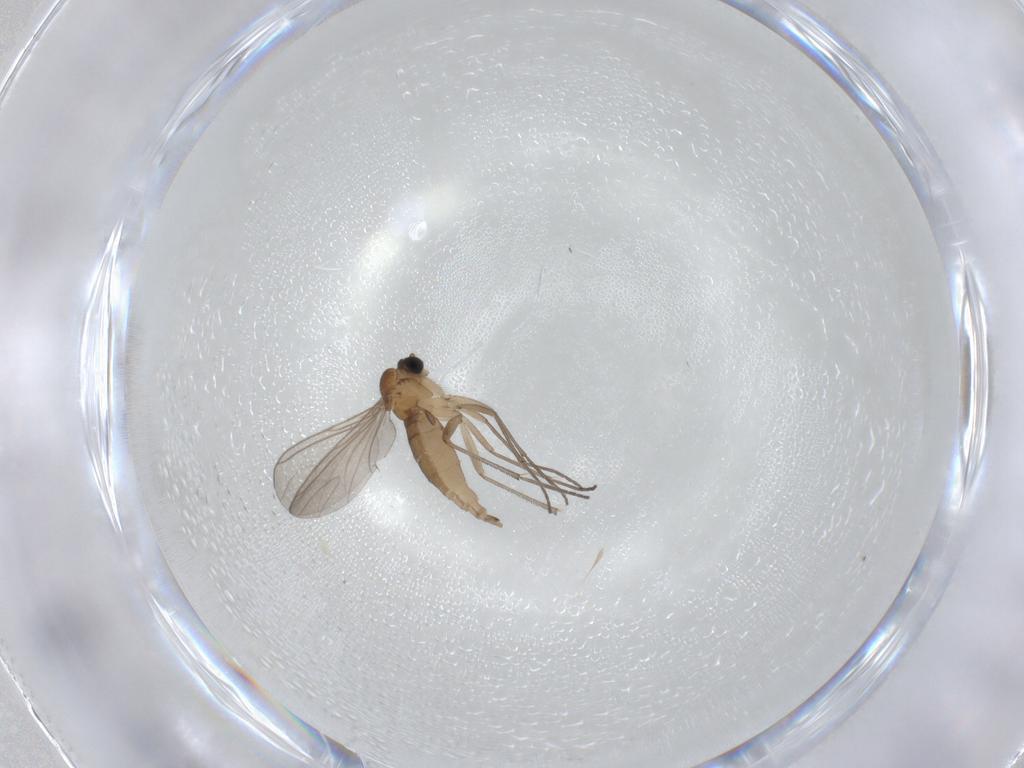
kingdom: Animalia
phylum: Arthropoda
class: Insecta
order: Diptera
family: Sciaridae
